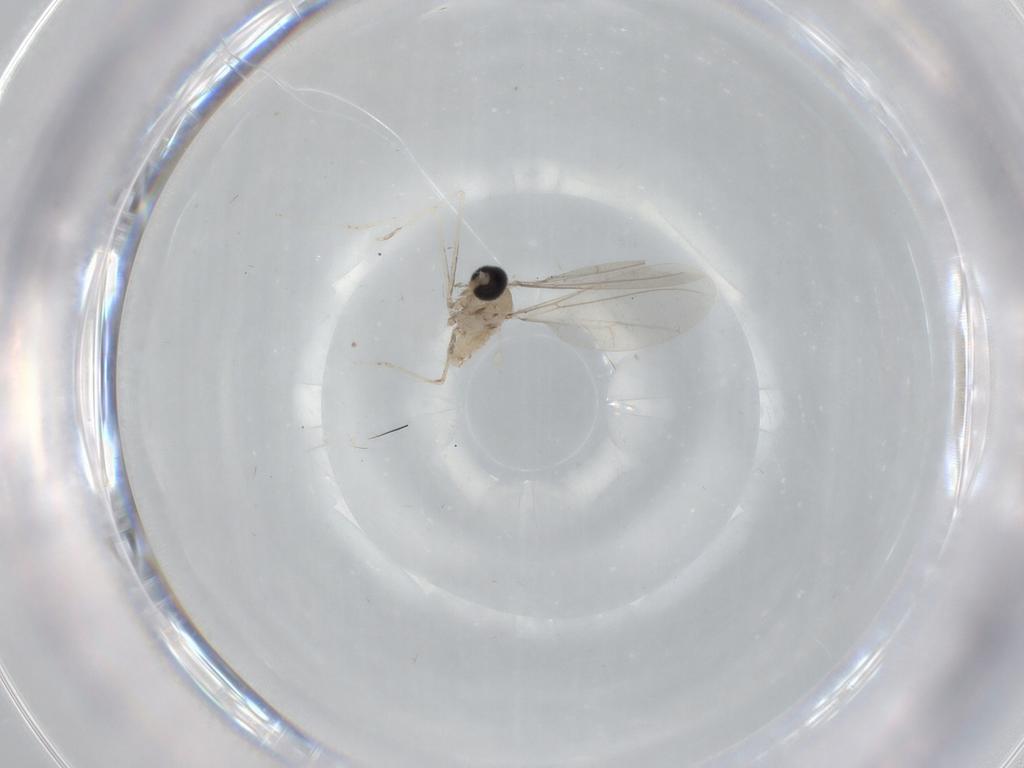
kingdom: Animalia
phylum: Arthropoda
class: Insecta
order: Diptera
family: Cecidomyiidae
